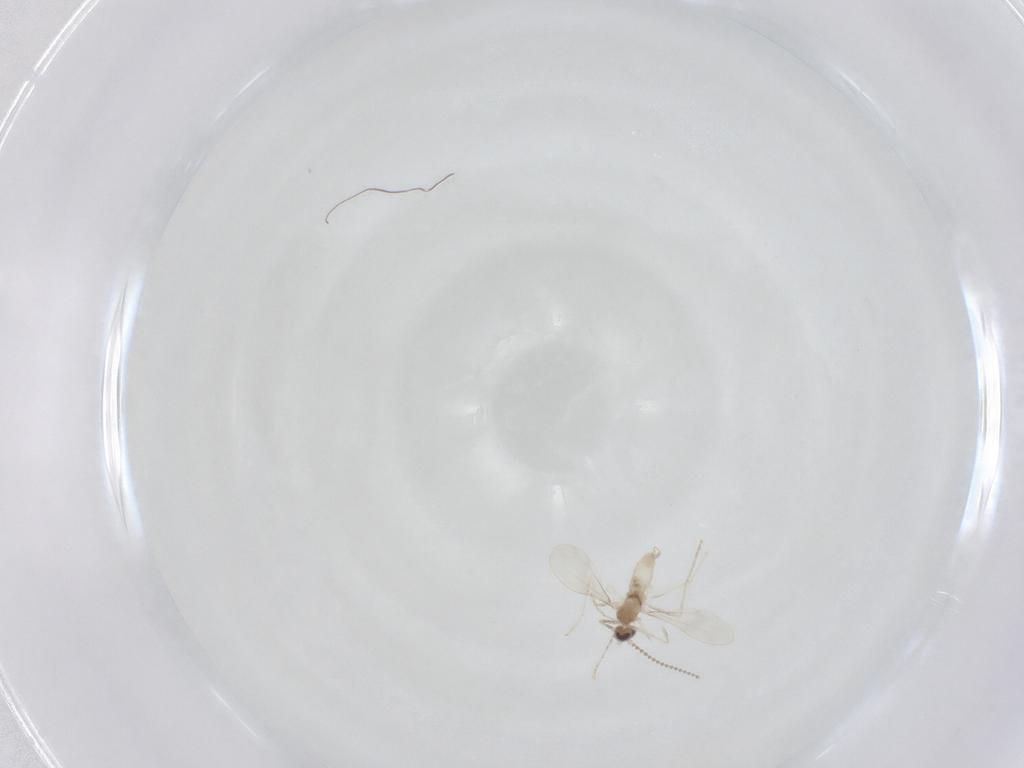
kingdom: Animalia
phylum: Arthropoda
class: Insecta
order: Diptera
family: Cecidomyiidae
